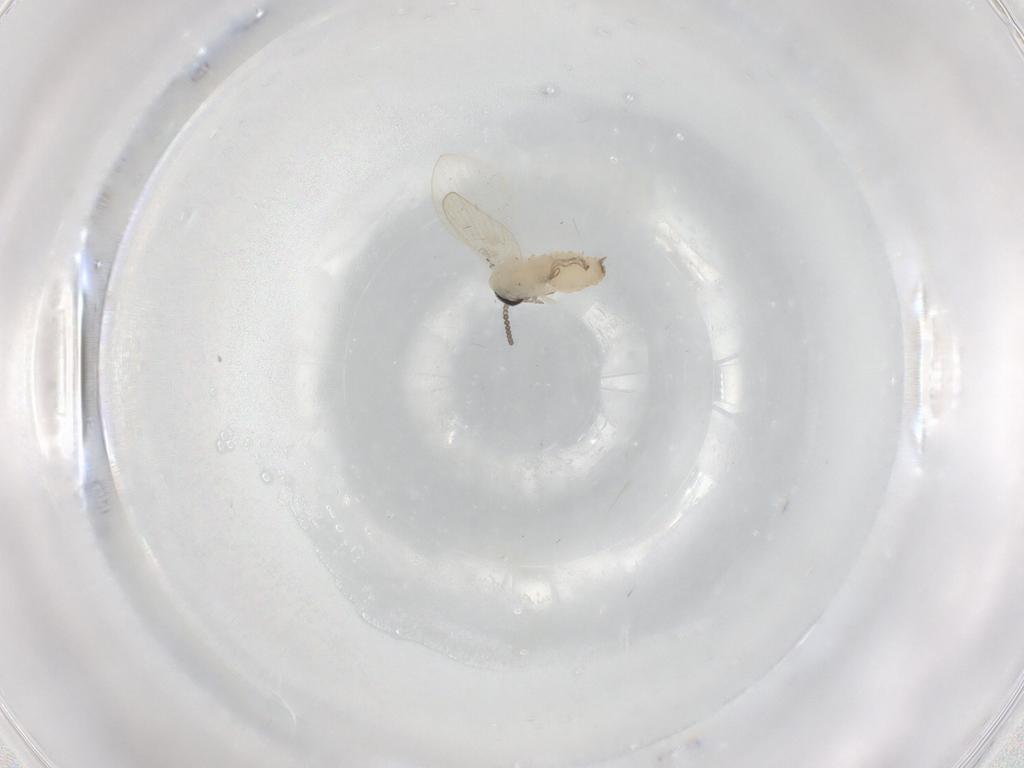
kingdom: Animalia
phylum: Arthropoda
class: Insecta
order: Diptera
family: Psychodidae
